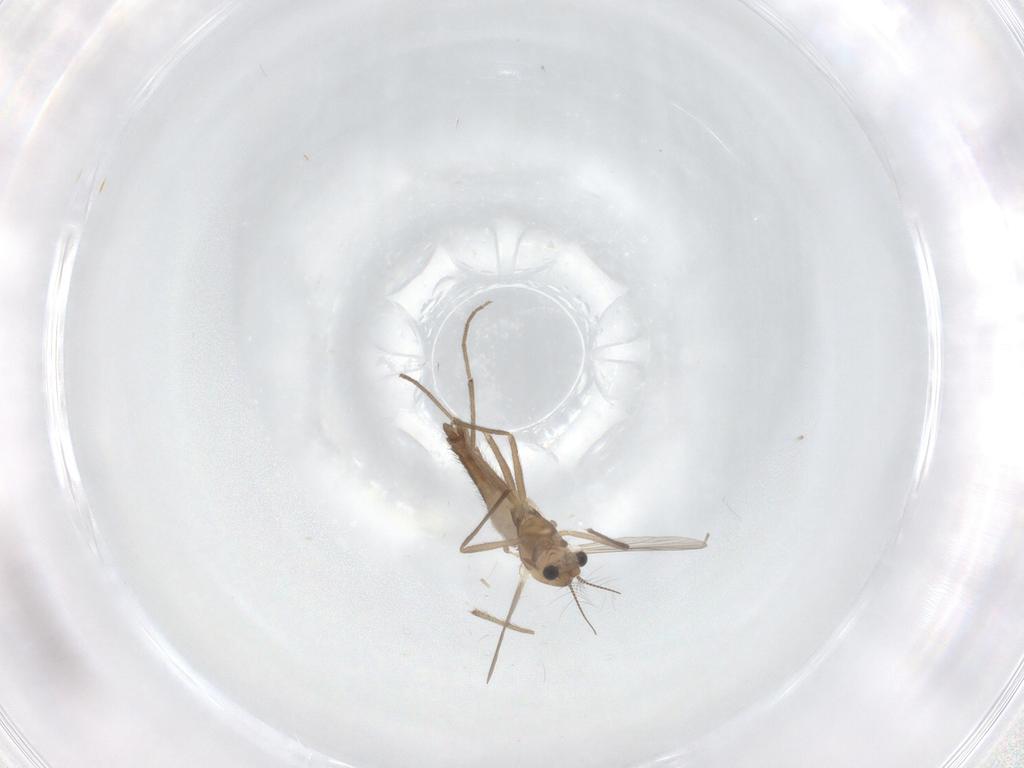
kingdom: Animalia
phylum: Arthropoda
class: Insecta
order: Diptera
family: Chironomidae
